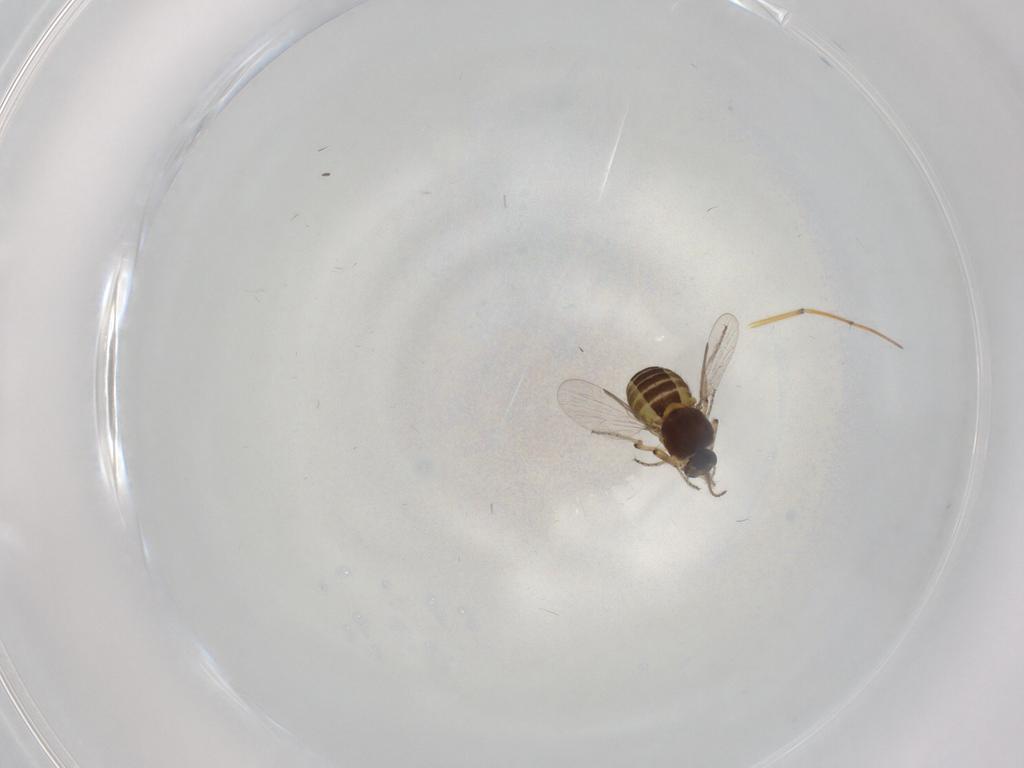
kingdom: Animalia
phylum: Arthropoda
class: Insecta
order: Diptera
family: Ceratopogonidae
